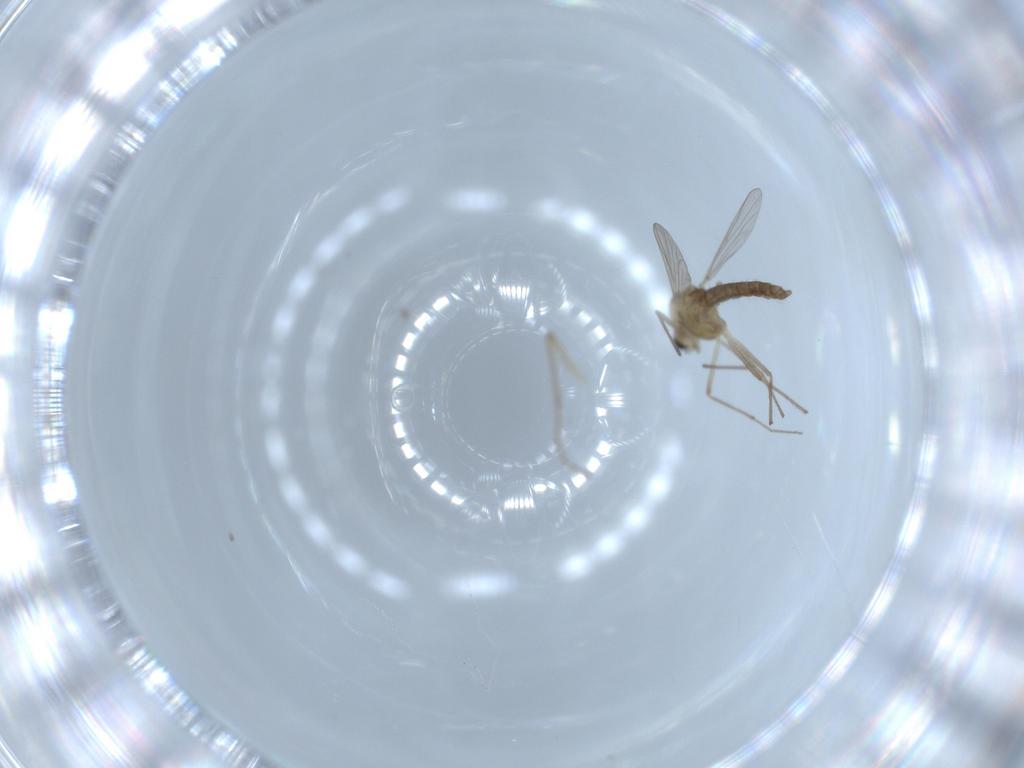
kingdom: Animalia
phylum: Arthropoda
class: Insecta
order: Diptera
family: Chironomidae
